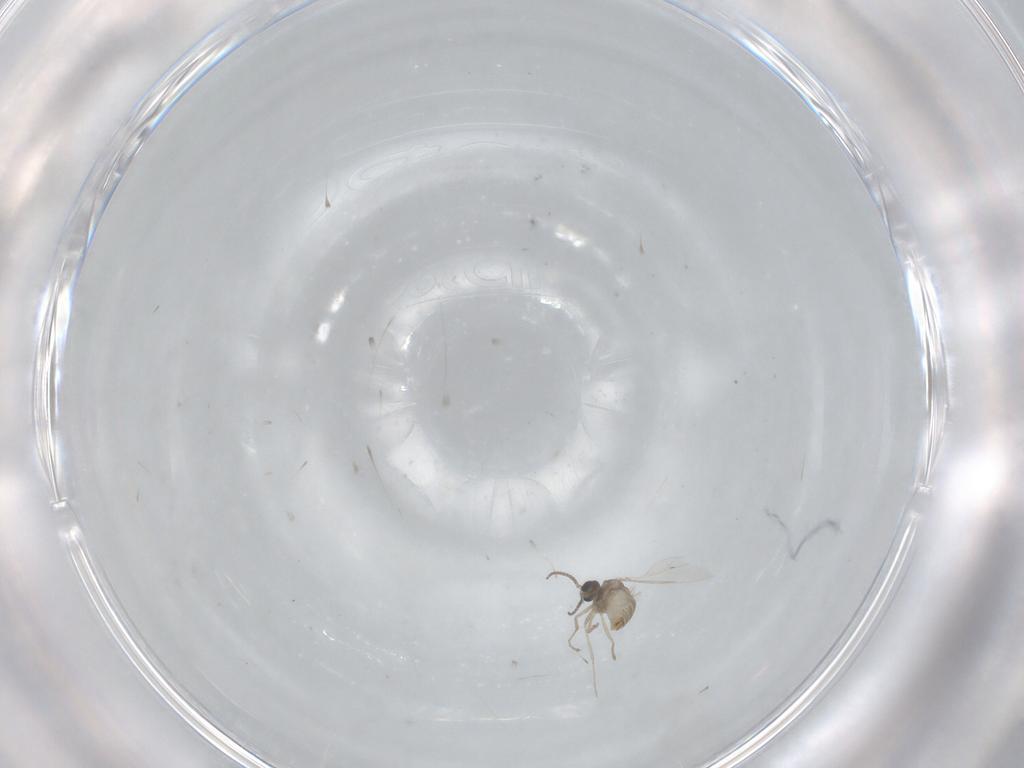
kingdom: Animalia
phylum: Arthropoda
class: Insecta
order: Diptera
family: Cecidomyiidae
